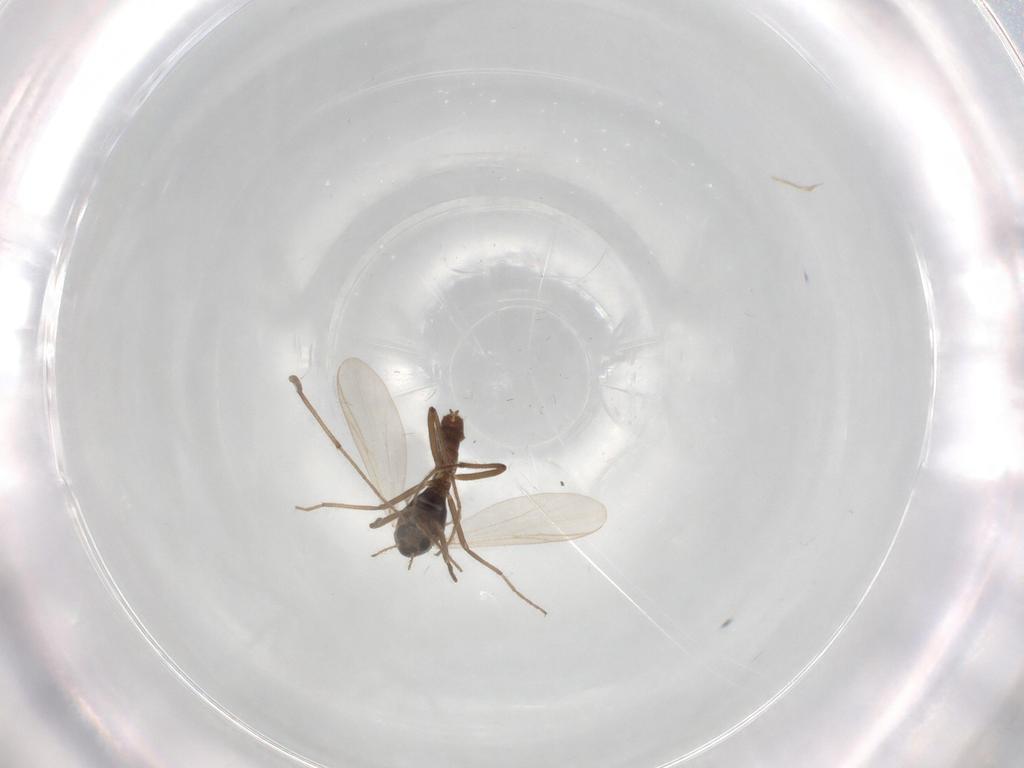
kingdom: Animalia
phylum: Arthropoda
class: Insecta
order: Diptera
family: Chironomidae
